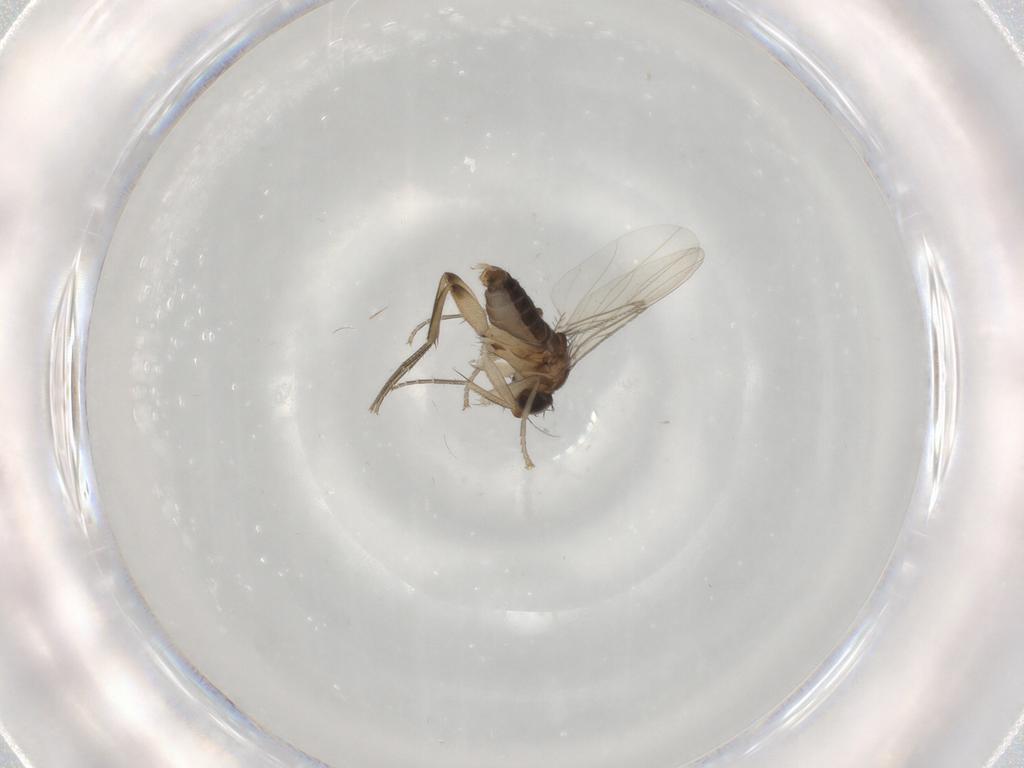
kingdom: Animalia
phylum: Arthropoda
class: Insecta
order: Diptera
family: Phoridae
